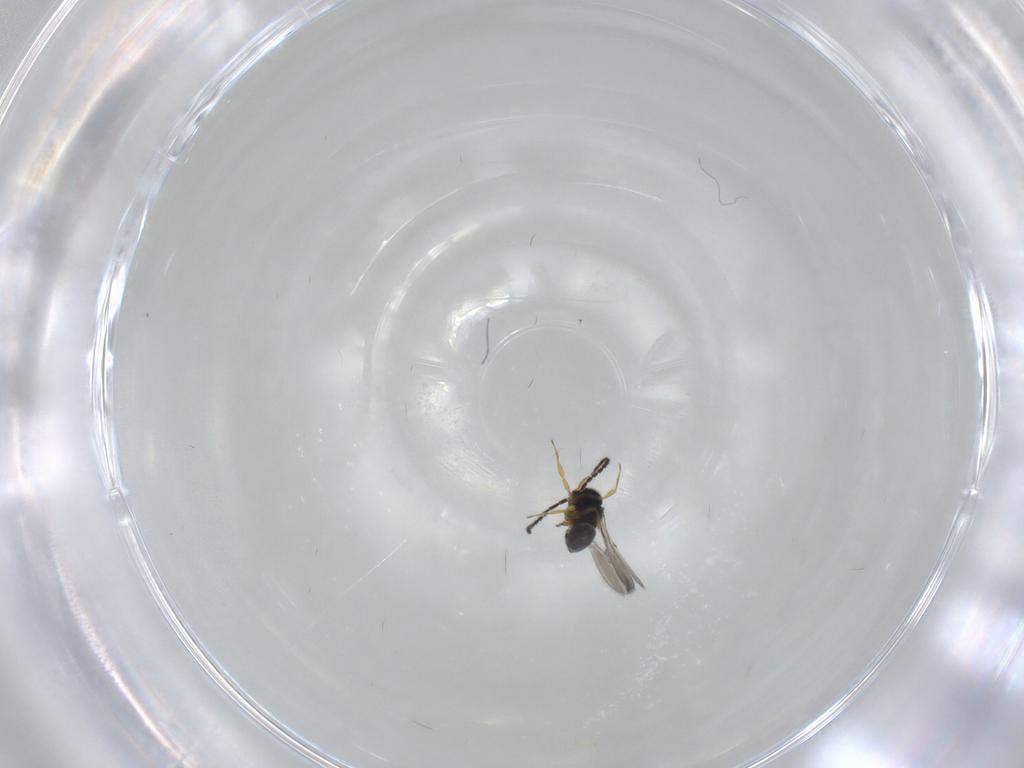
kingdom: Animalia
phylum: Arthropoda
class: Insecta
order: Hymenoptera
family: Scelionidae
